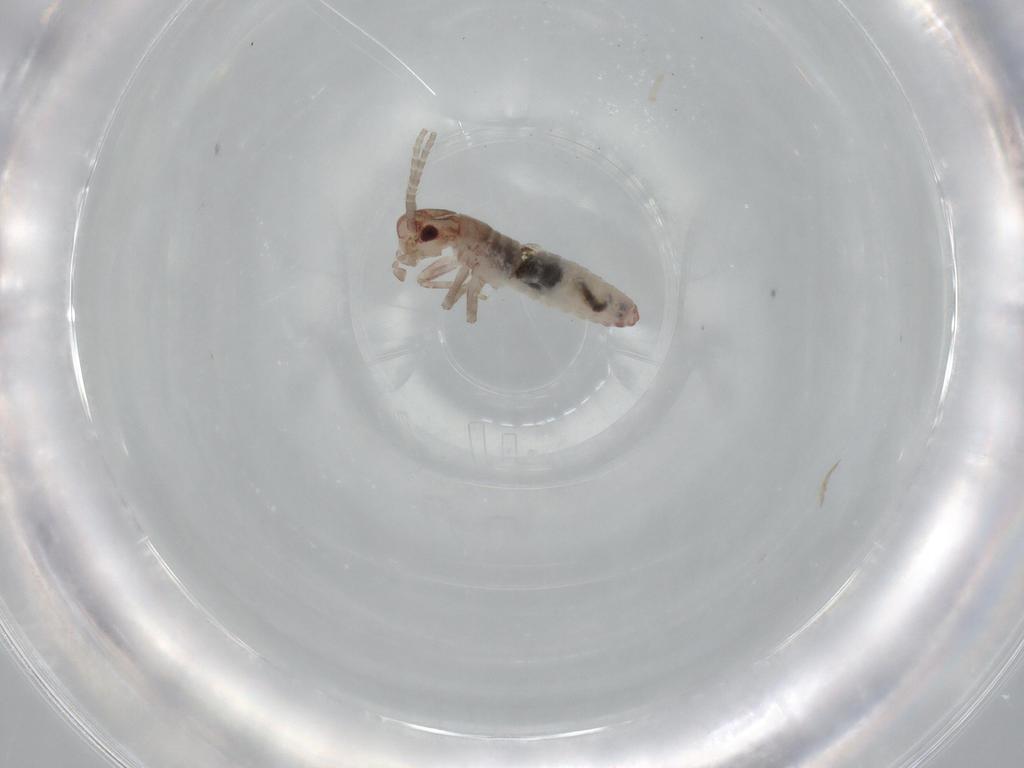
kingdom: Animalia
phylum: Arthropoda
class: Insecta
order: Orthoptera
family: Mogoplistidae
